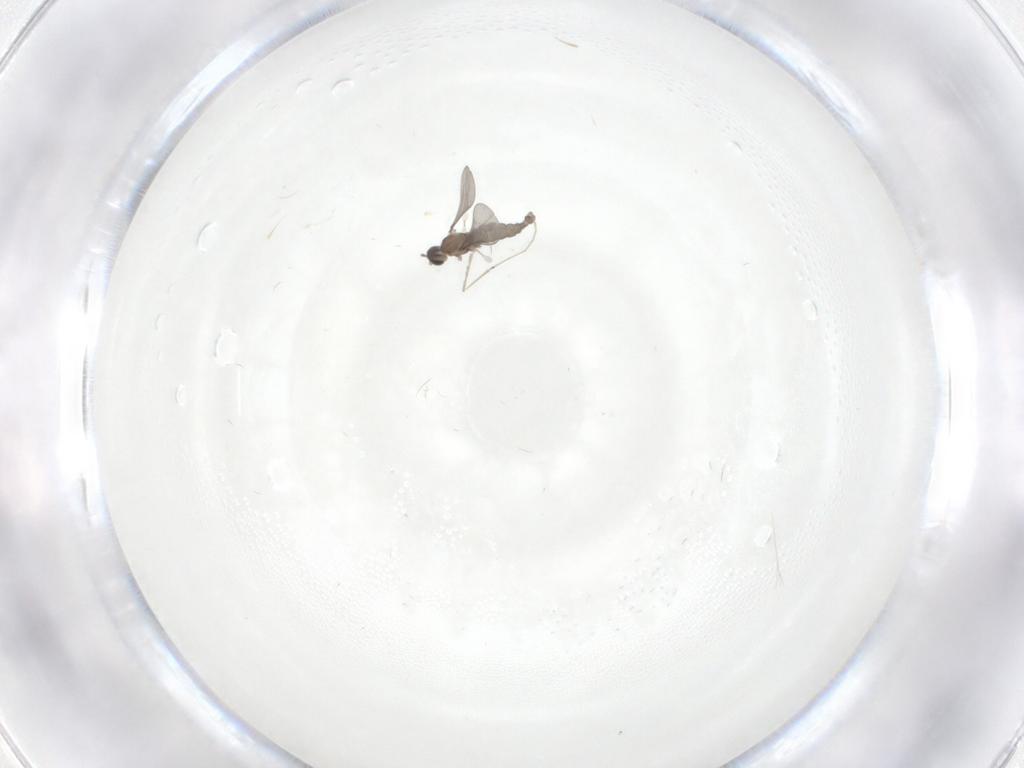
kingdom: Animalia
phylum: Arthropoda
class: Insecta
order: Diptera
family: Cecidomyiidae
